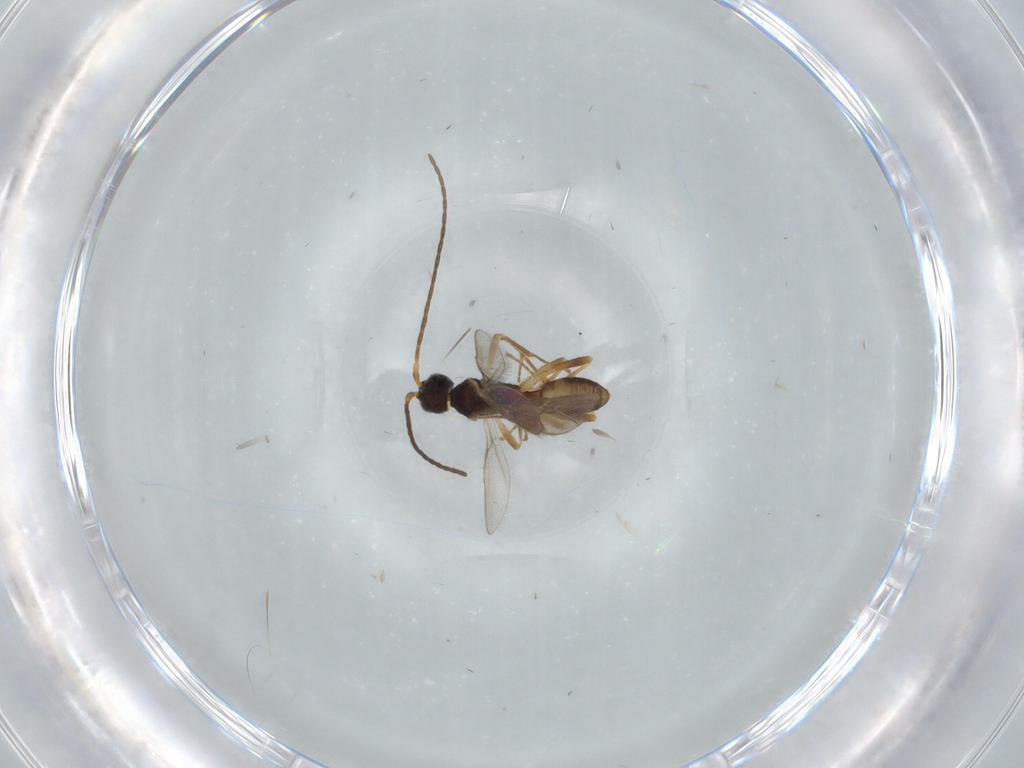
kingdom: Animalia
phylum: Arthropoda
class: Insecta
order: Hymenoptera
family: Braconidae
